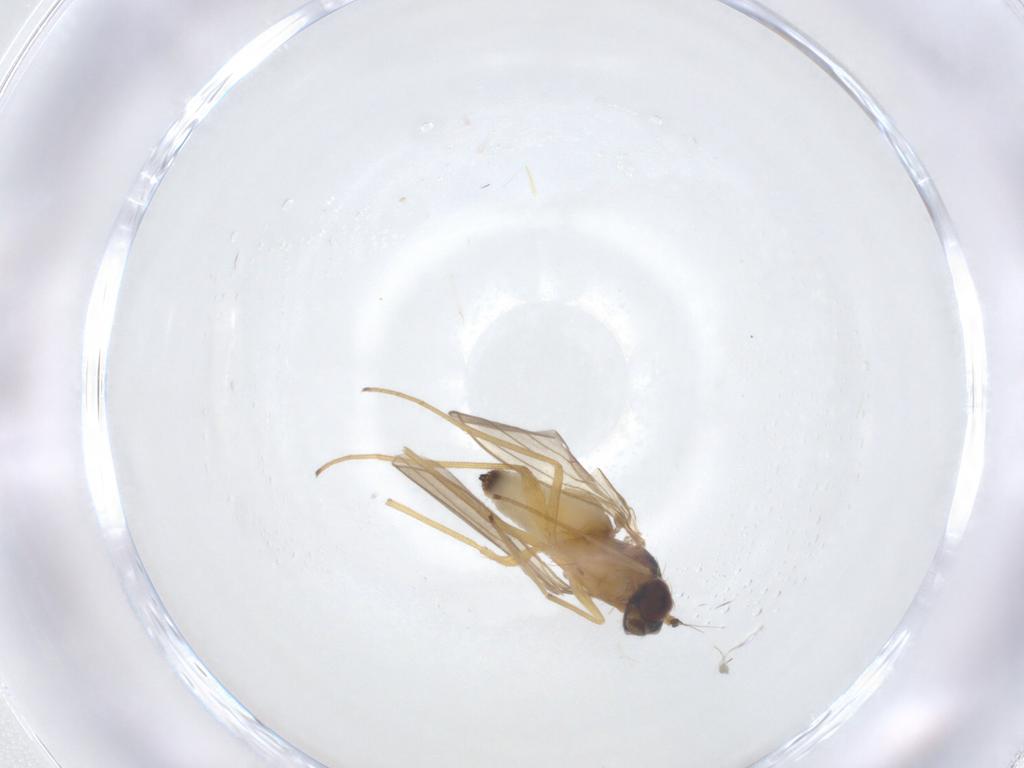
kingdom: Animalia
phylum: Arthropoda
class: Insecta
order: Diptera
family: Dolichopodidae
